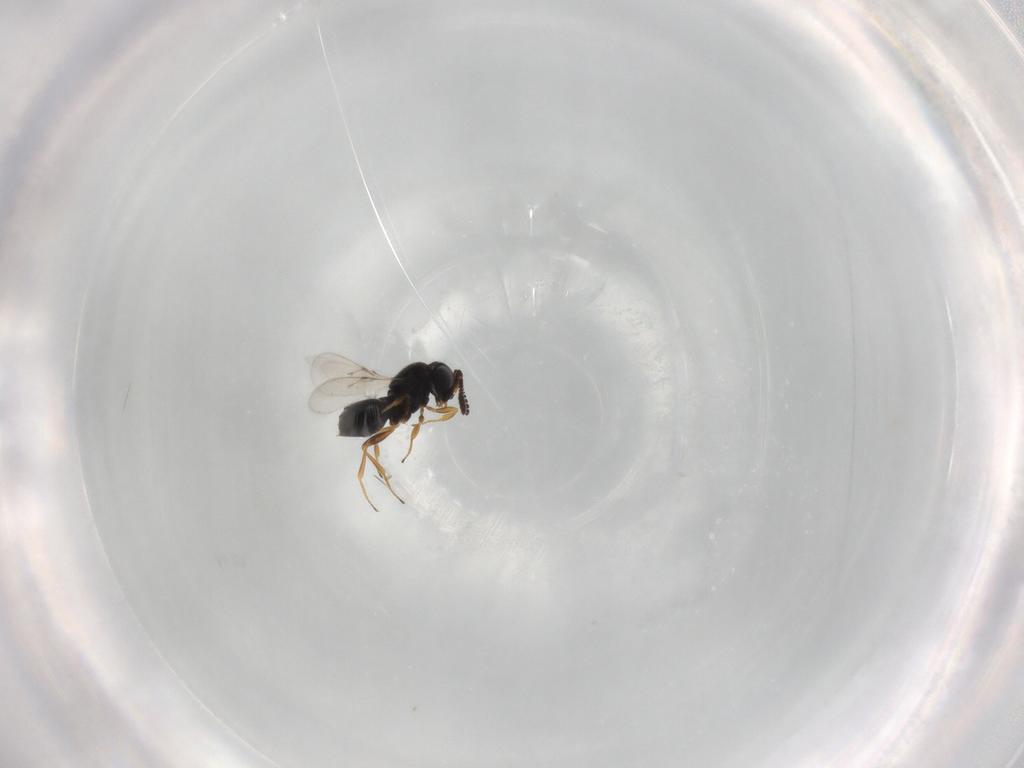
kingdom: Animalia
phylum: Arthropoda
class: Insecta
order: Hymenoptera
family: Scelionidae
